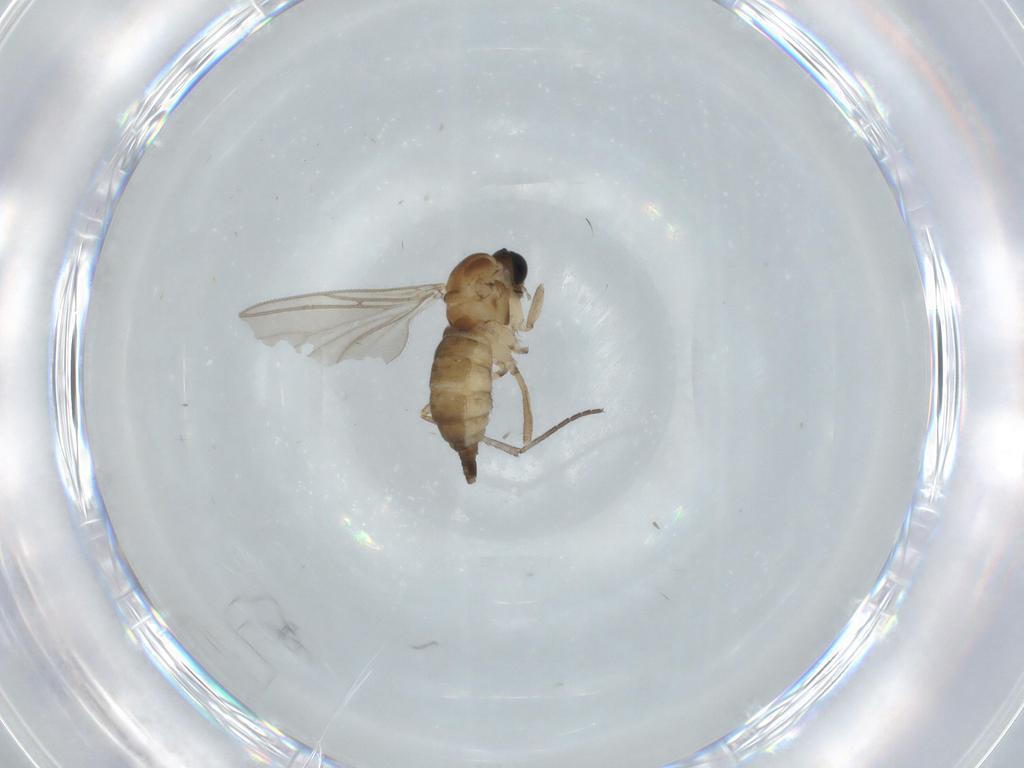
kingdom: Animalia
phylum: Arthropoda
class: Insecta
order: Diptera
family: Sciaridae
